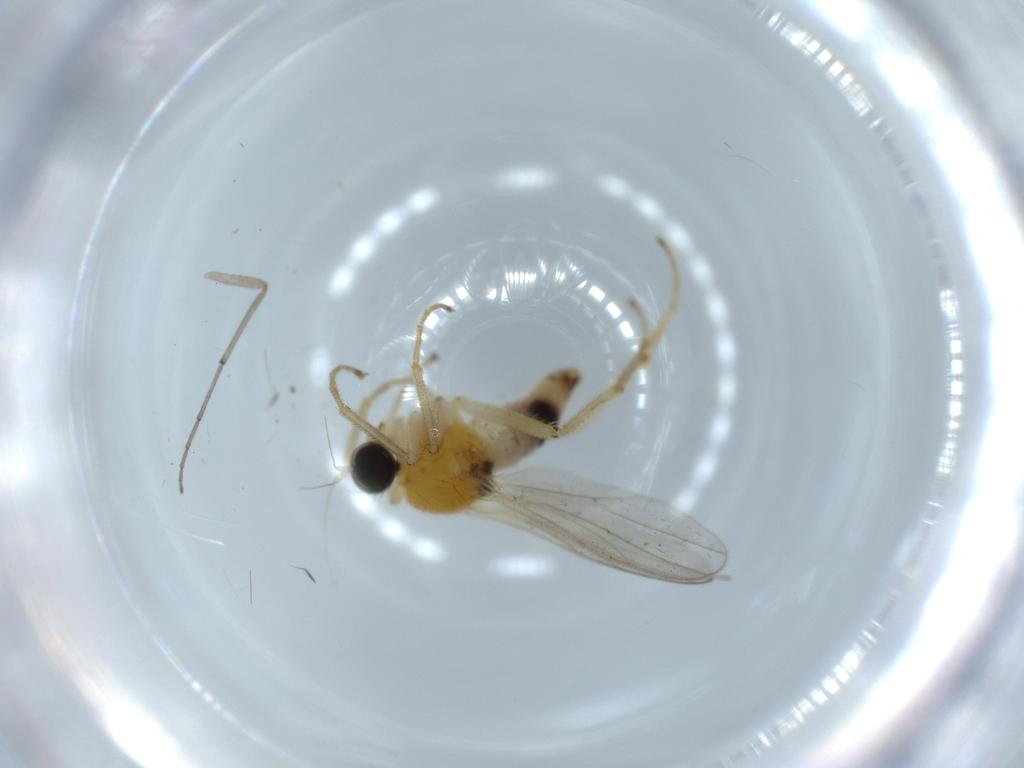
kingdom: Animalia
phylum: Arthropoda
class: Insecta
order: Diptera
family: Hybotidae
